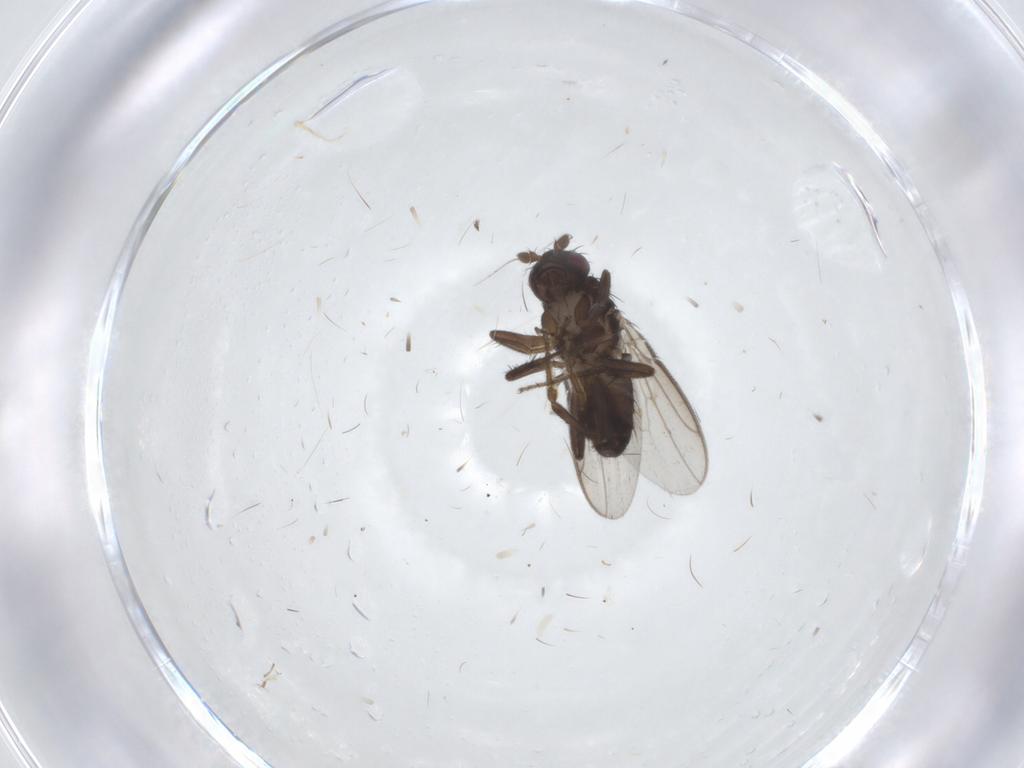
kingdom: Animalia
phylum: Arthropoda
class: Insecta
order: Diptera
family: Sphaeroceridae
